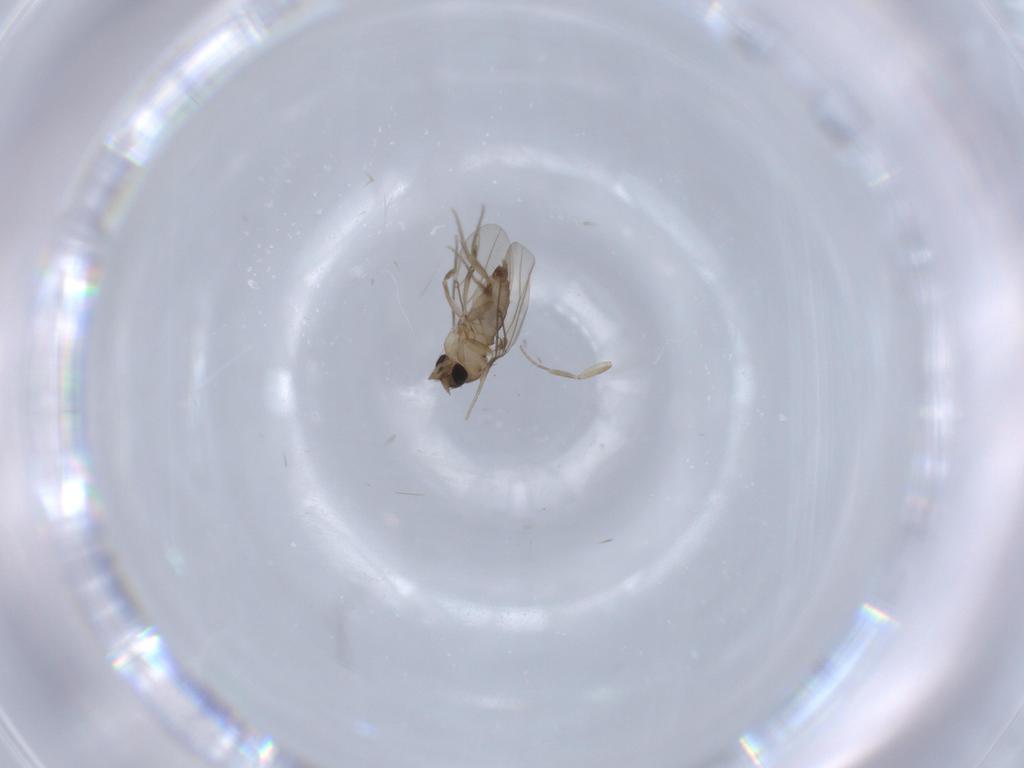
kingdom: Animalia
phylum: Arthropoda
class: Insecta
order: Diptera
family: Phoridae
